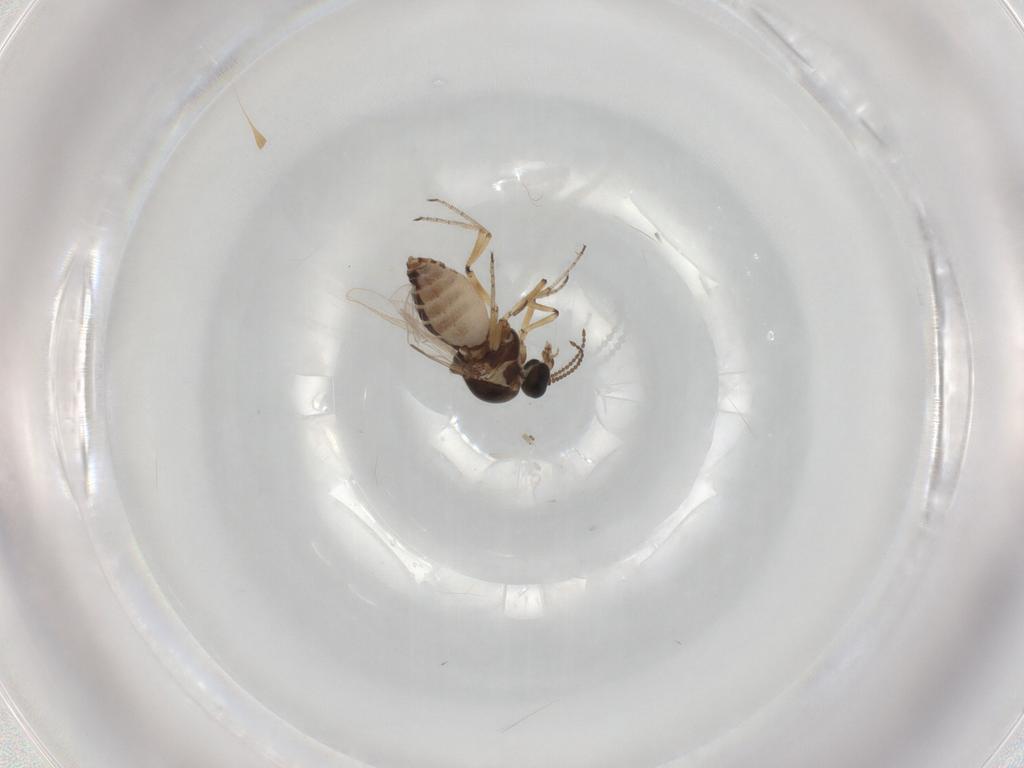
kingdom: Animalia
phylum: Arthropoda
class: Insecta
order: Diptera
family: Ceratopogonidae
